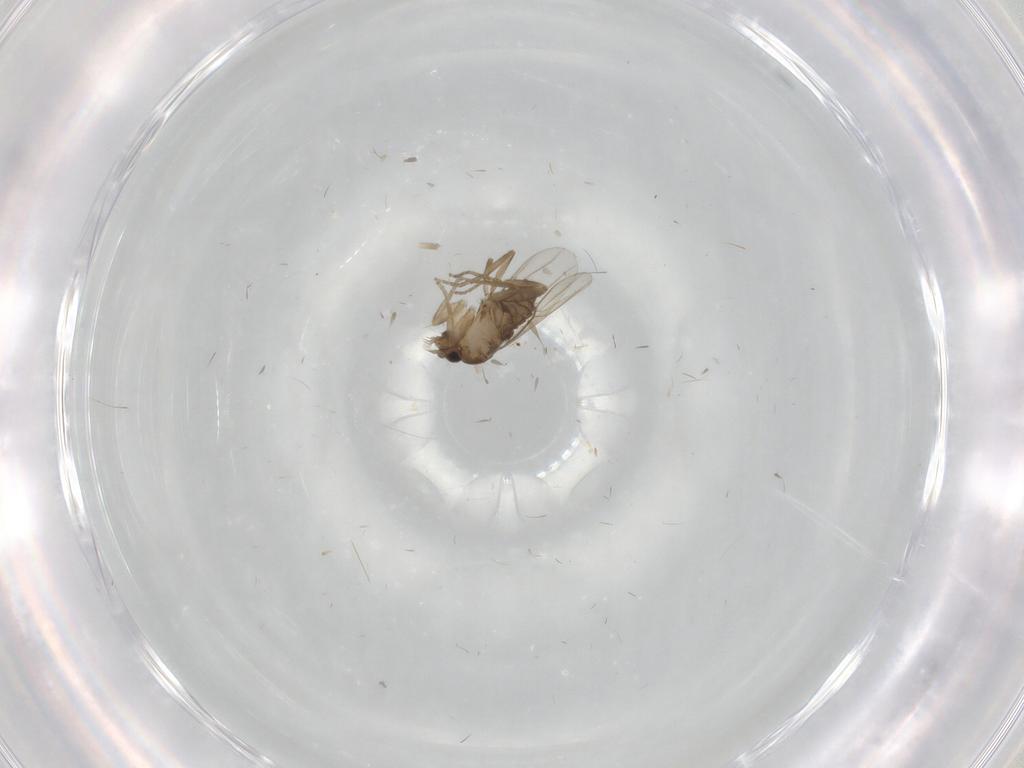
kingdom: Animalia
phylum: Arthropoda
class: Insecta
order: Diptera
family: Phoridae
